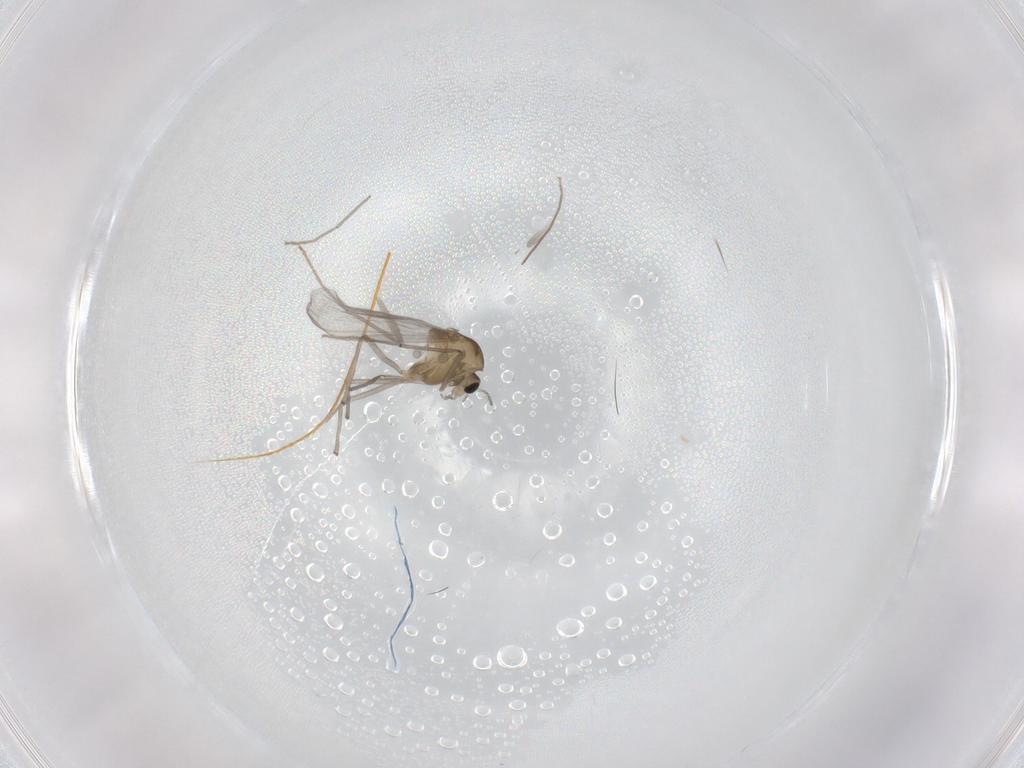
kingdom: Animalia
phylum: Arthropoda
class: Insecta
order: Diptera
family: Chironomidae
